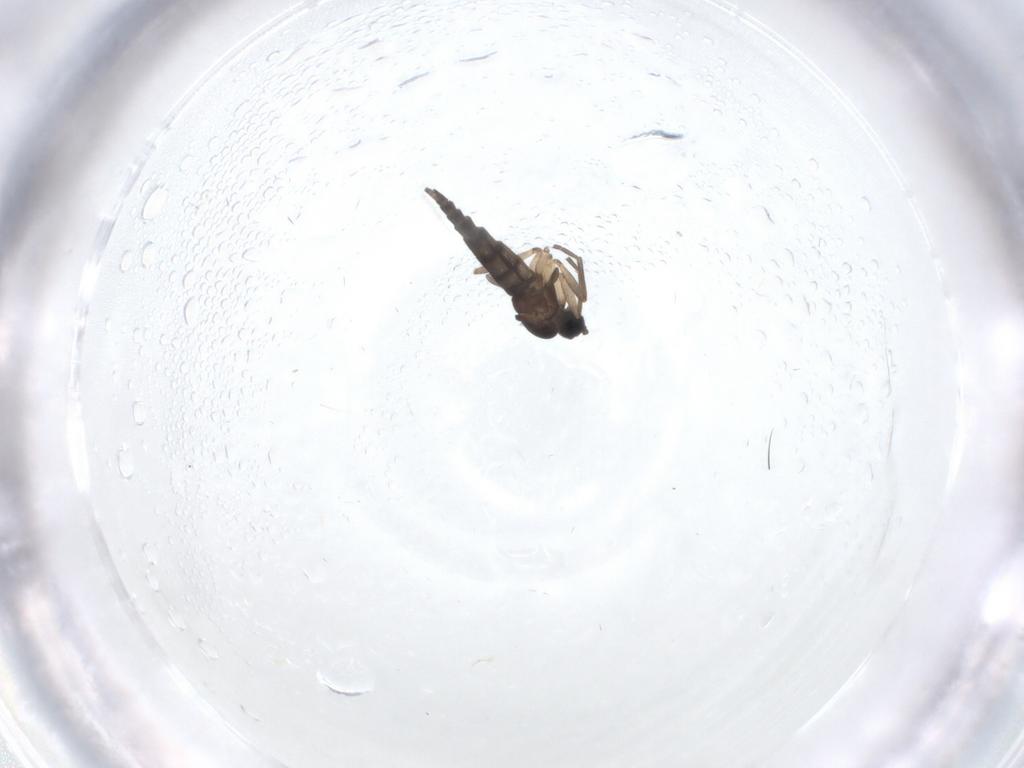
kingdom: Animalia
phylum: Arthropoda
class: Insecta
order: Diptera
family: Sciaridae
